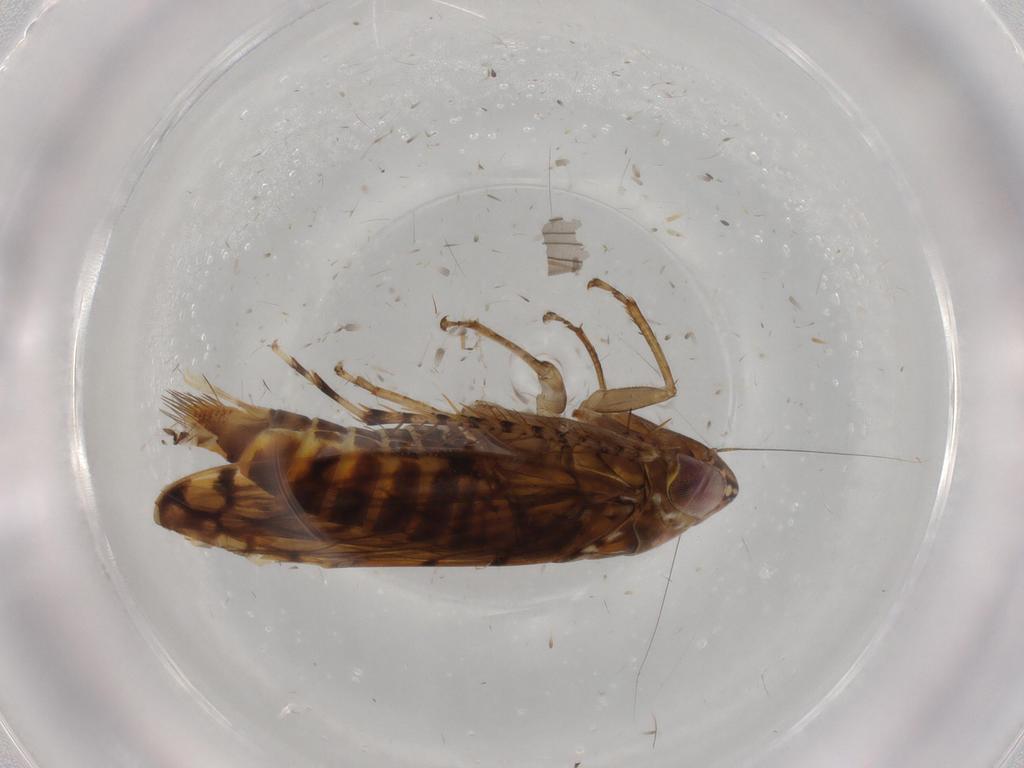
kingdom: Animalia
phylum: Arthropoda
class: Insecta
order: Hemiptera
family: Cicadellidae
